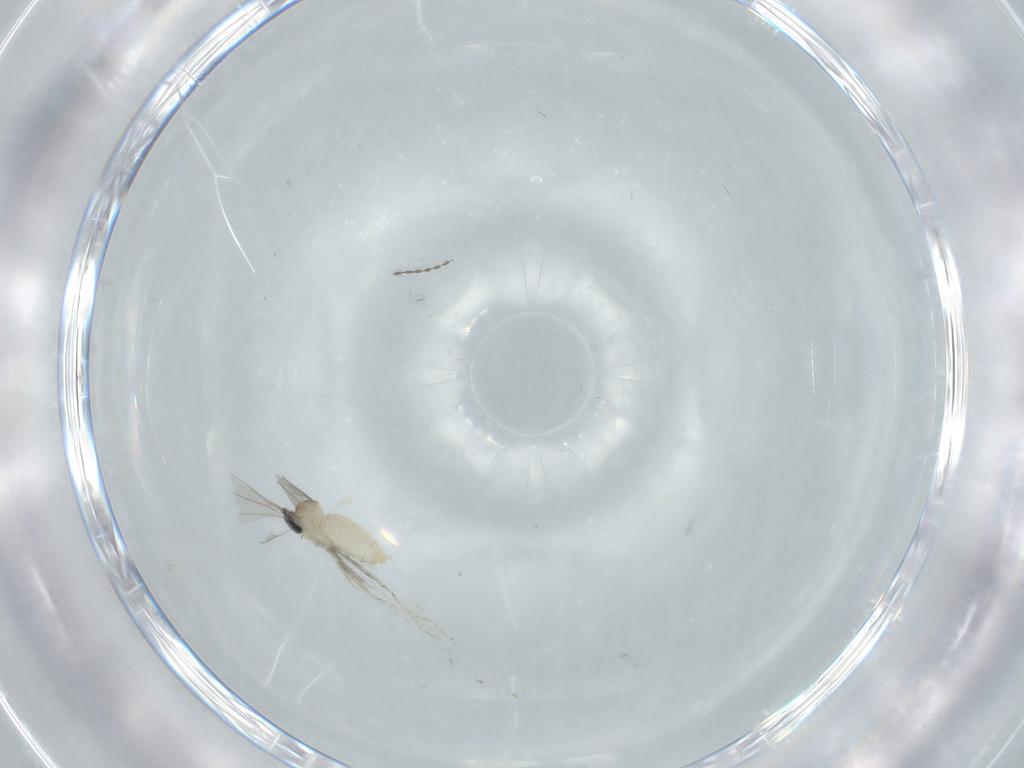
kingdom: Animalia
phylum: Arthropoda
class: Insecta
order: Diptera
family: Cecidomyiidae
